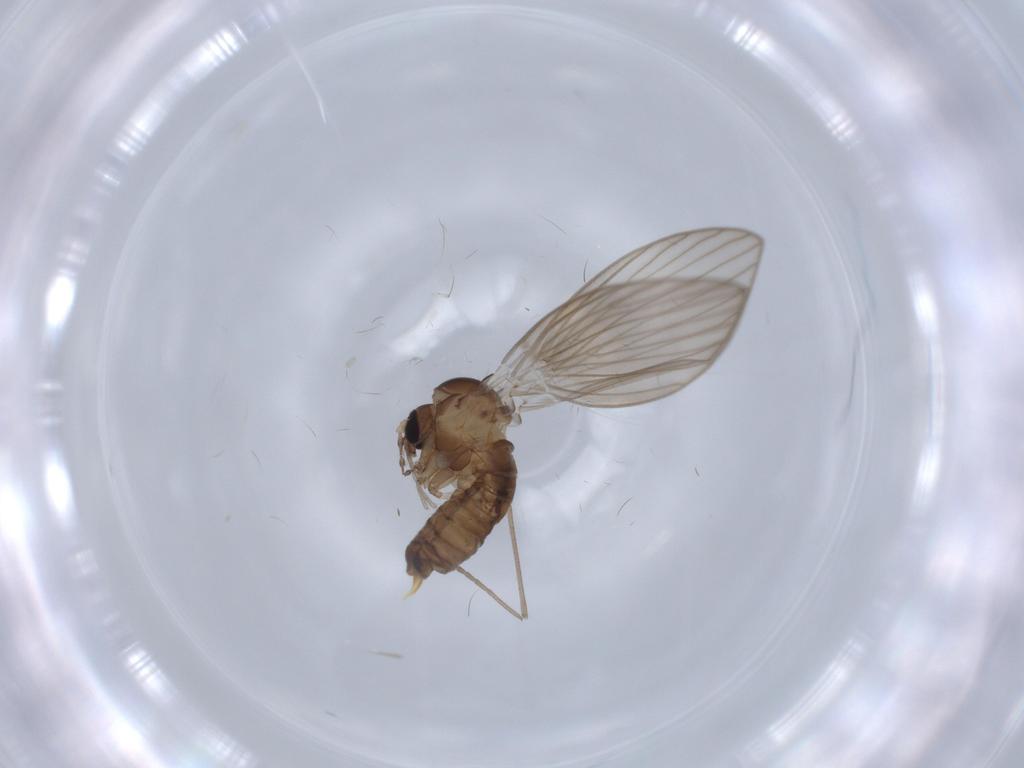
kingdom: Animalia
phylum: Arthropoda
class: Insecta
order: Diptera
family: Psychodidae
